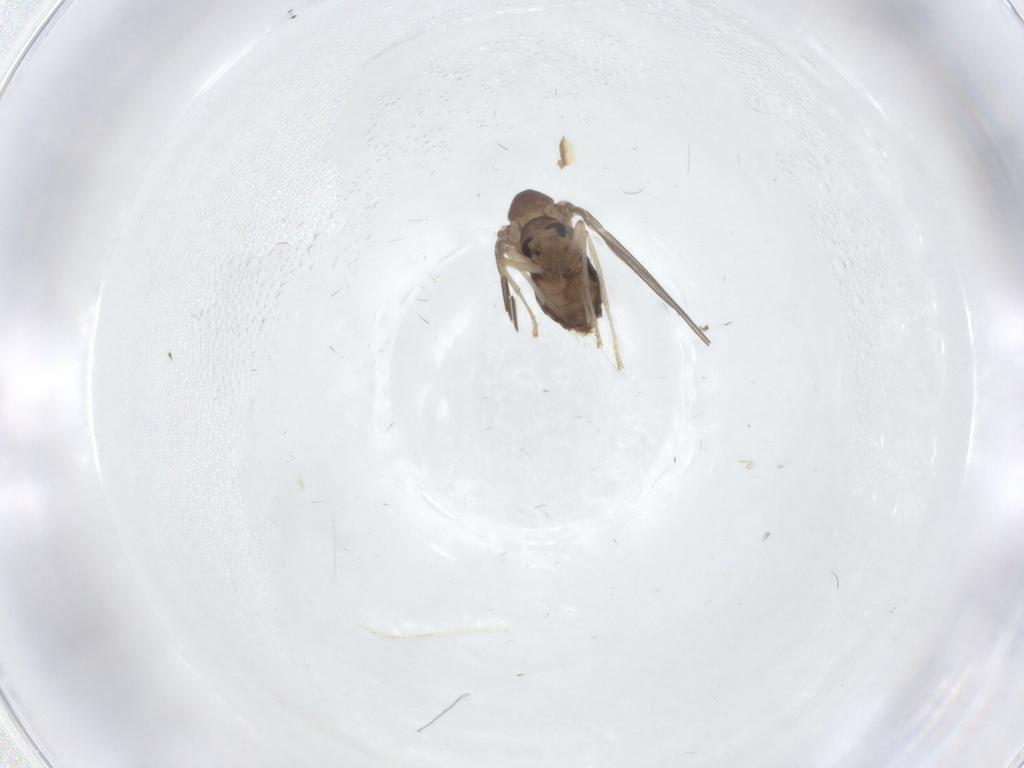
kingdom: Animalia
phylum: Arthropoda
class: Insecta
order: Diptera
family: Psychodidae
